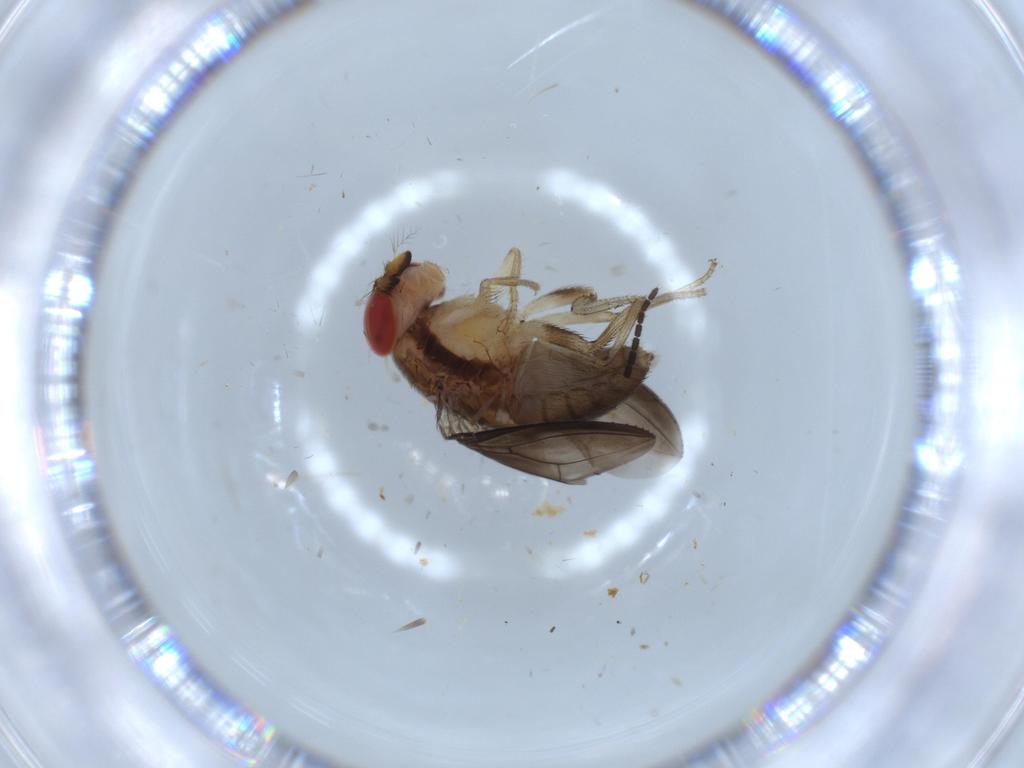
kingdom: Animalia
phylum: Arthropoda
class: Insecta
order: Diptera
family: Drosophilidae
